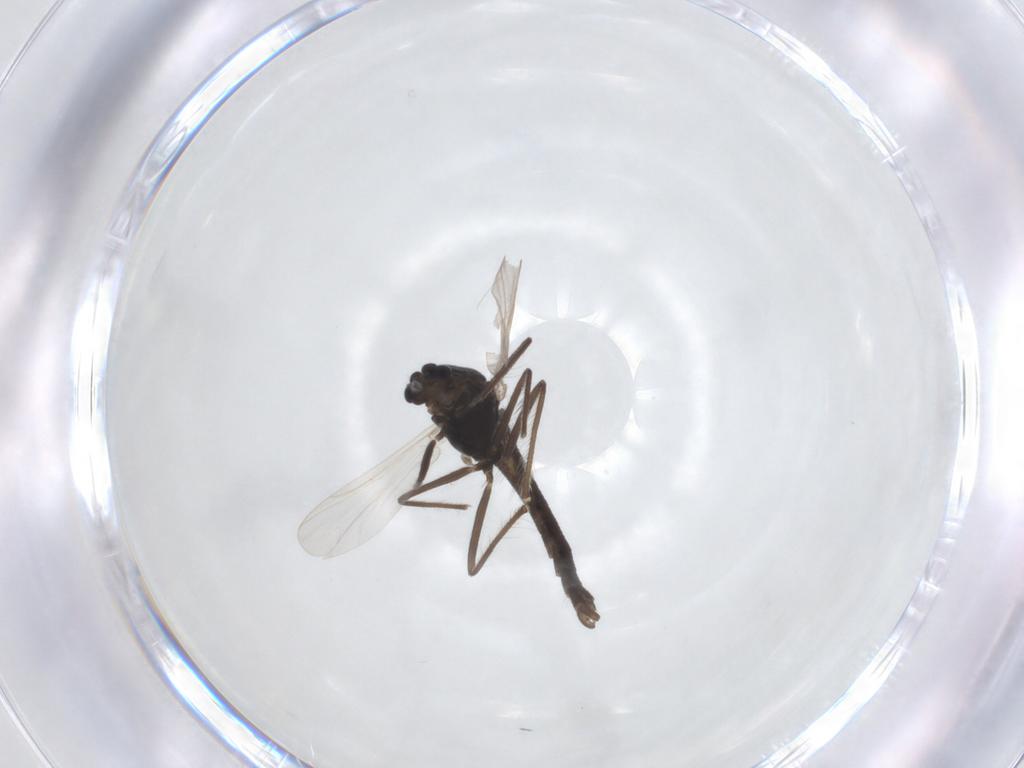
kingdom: Animalia
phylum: Arthropoda
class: Insecta
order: Diptera
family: Chironomidae
